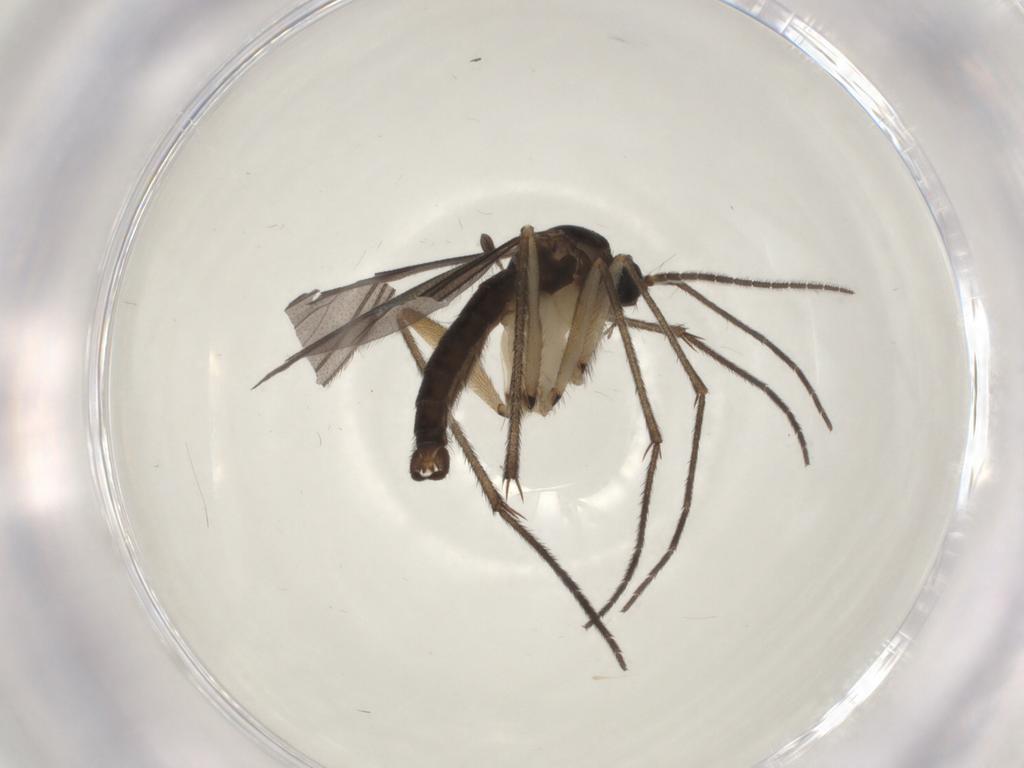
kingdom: Animalia
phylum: Arthropoda
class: Insecta
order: Diptera
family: Sciaridae
